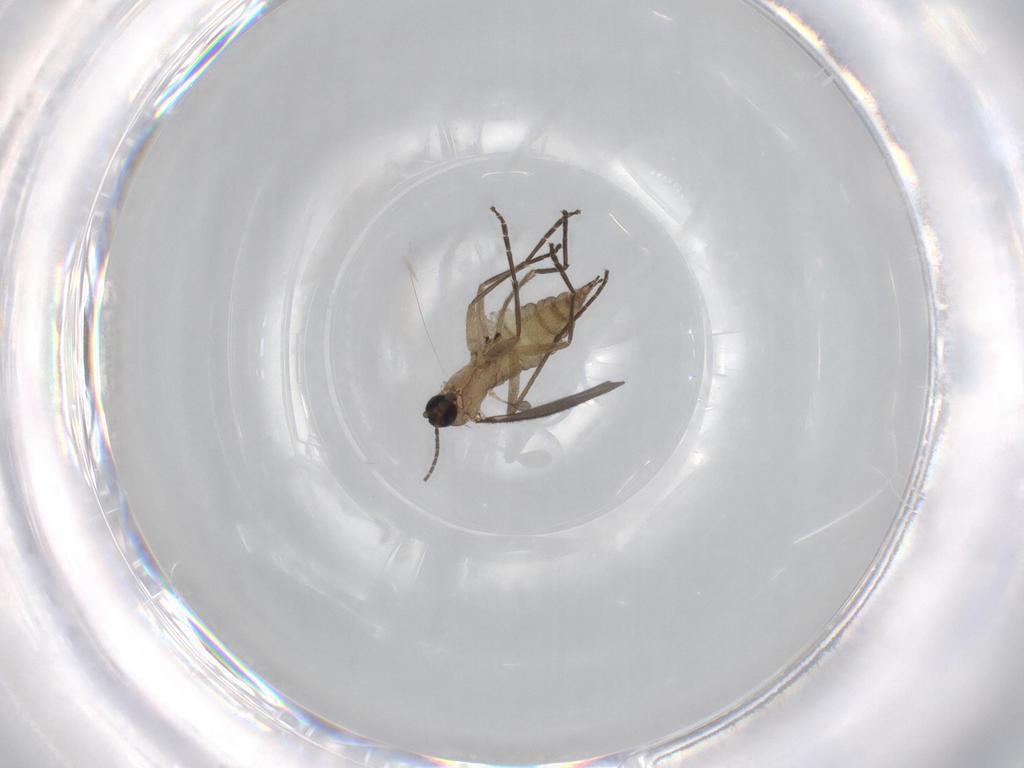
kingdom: Animalia
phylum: Arthropoda
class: Insecta
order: Diptera
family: Sciaridae
